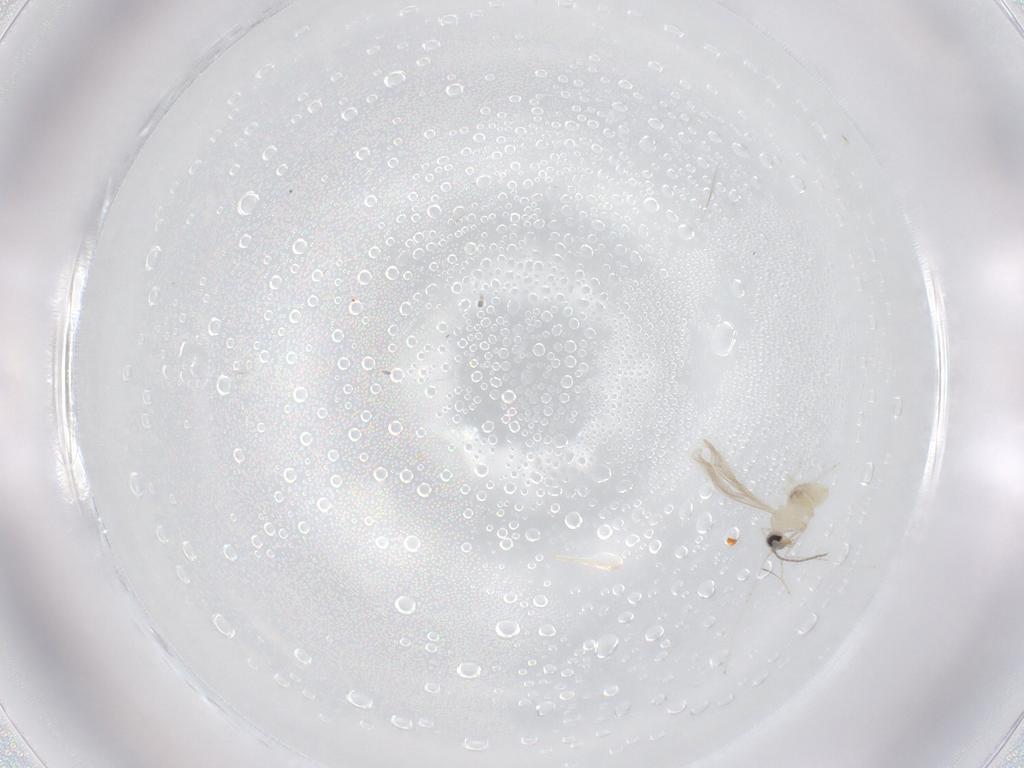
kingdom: Animalia
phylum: Arthropoda
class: Insecta
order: Diptera
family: Cecidomyiidae
